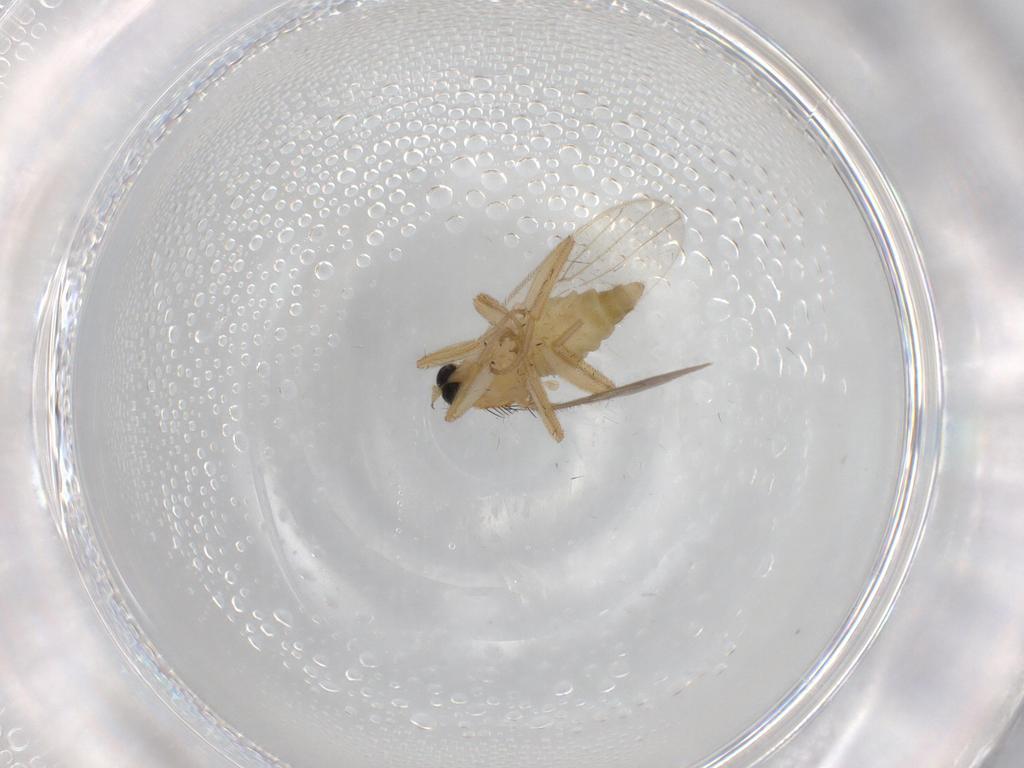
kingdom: Animalia
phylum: Arthropoda
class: Insecta
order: Diptera
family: Hybotidae
